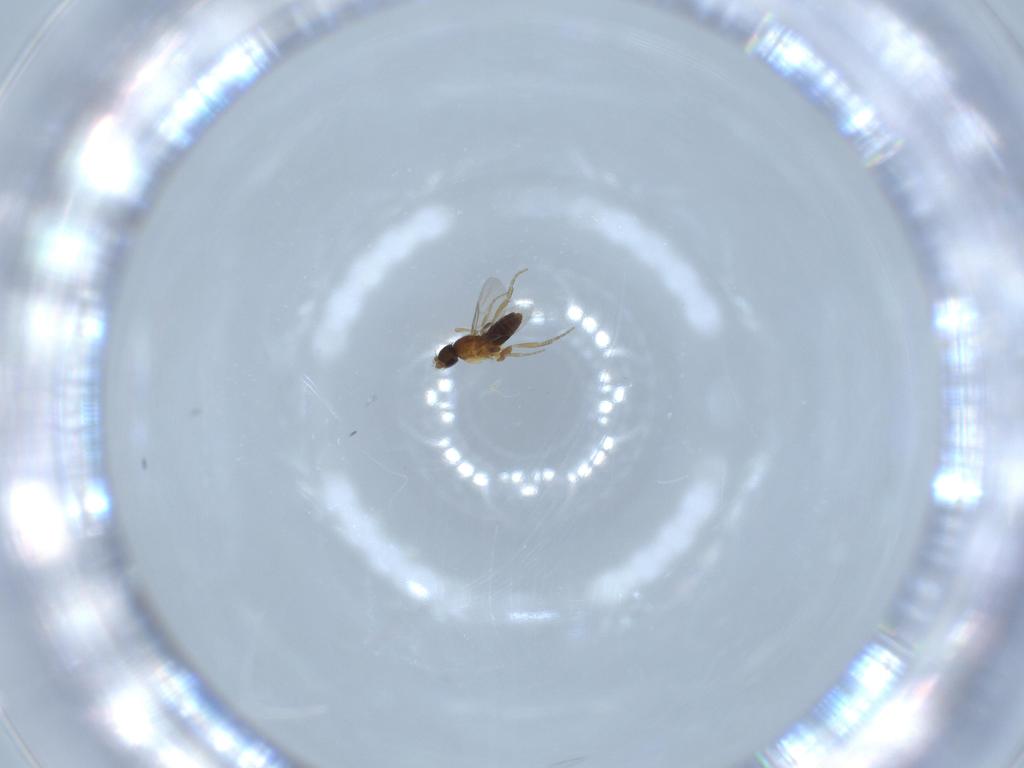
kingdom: Animalia
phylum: Arthropoda
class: Insecta
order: Diptera
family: Phoridae
